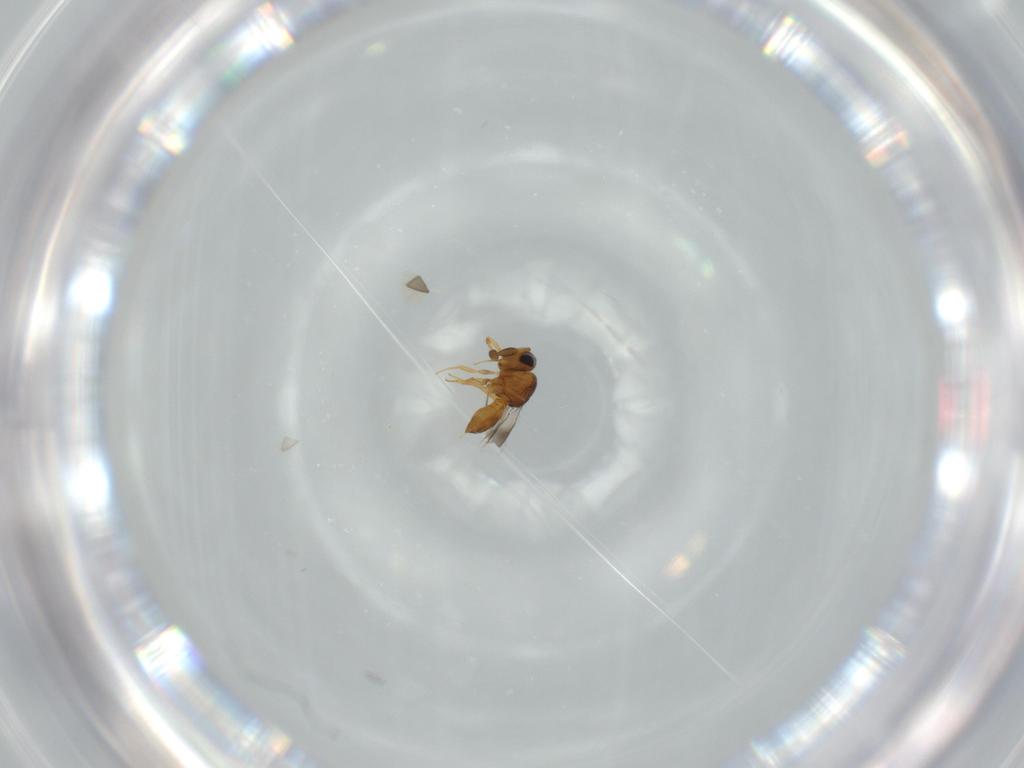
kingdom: Animalia
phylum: Arthropoda
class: Insecta
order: Hymenoptera
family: Scelionidae
